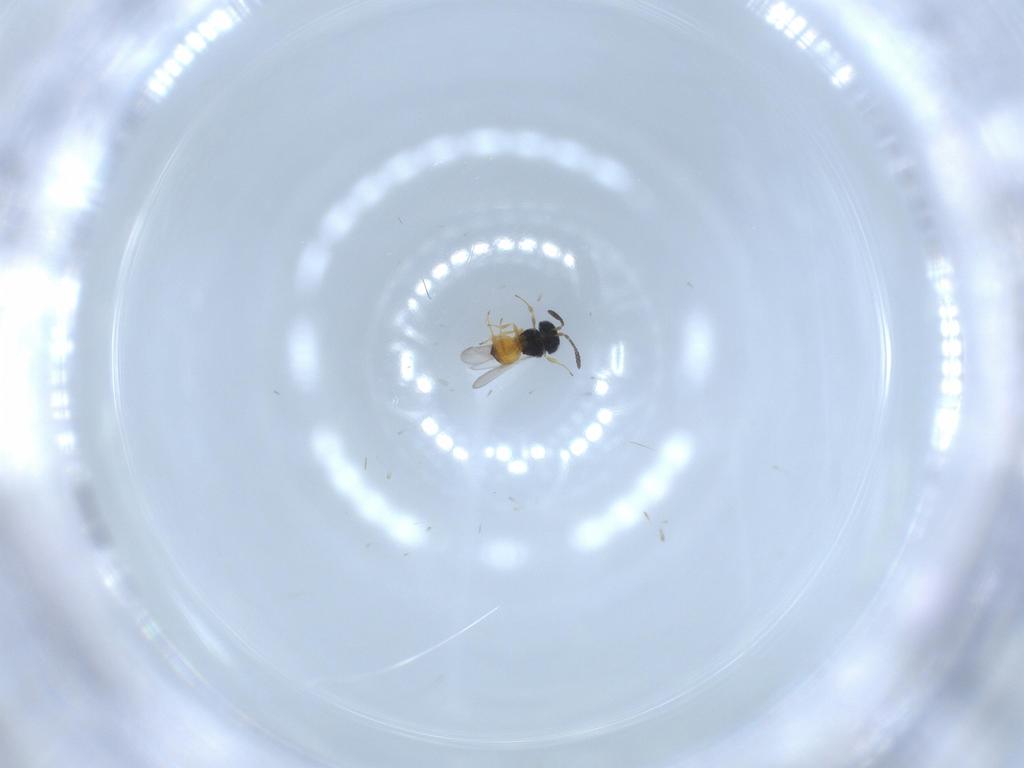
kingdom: Animalia
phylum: Arthropoda
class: Insecta
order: Hymenoptera
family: Scelionidae
